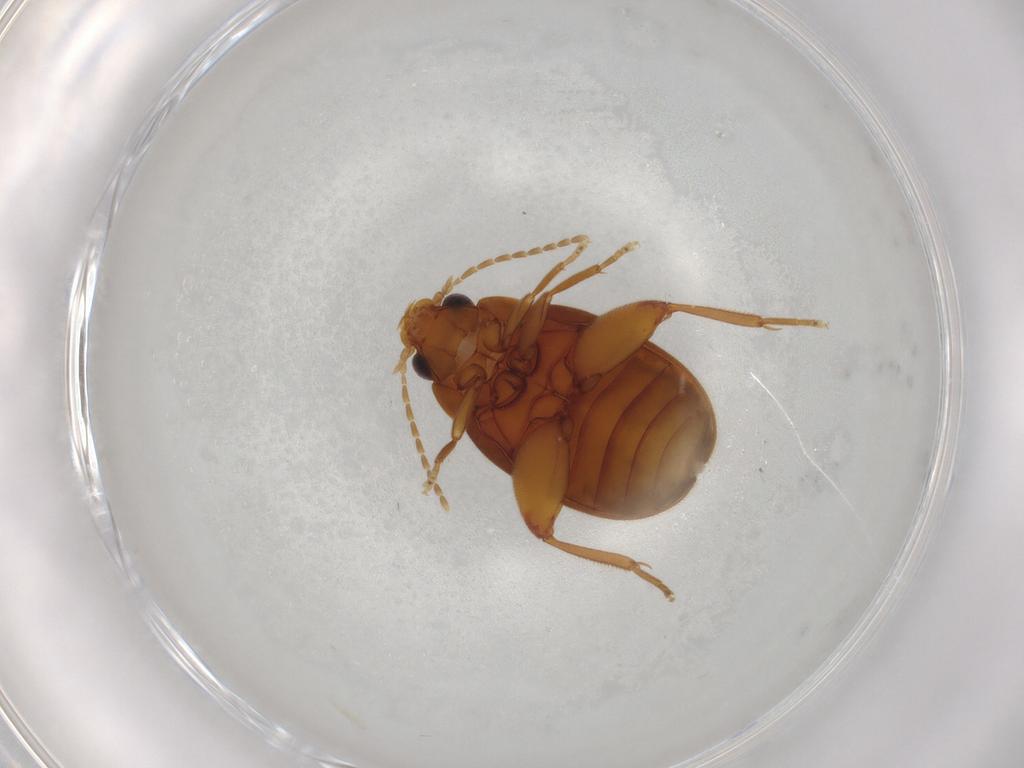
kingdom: Animalia
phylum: Arthropoda
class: Insecta
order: Coleoptera
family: Scirtidae
